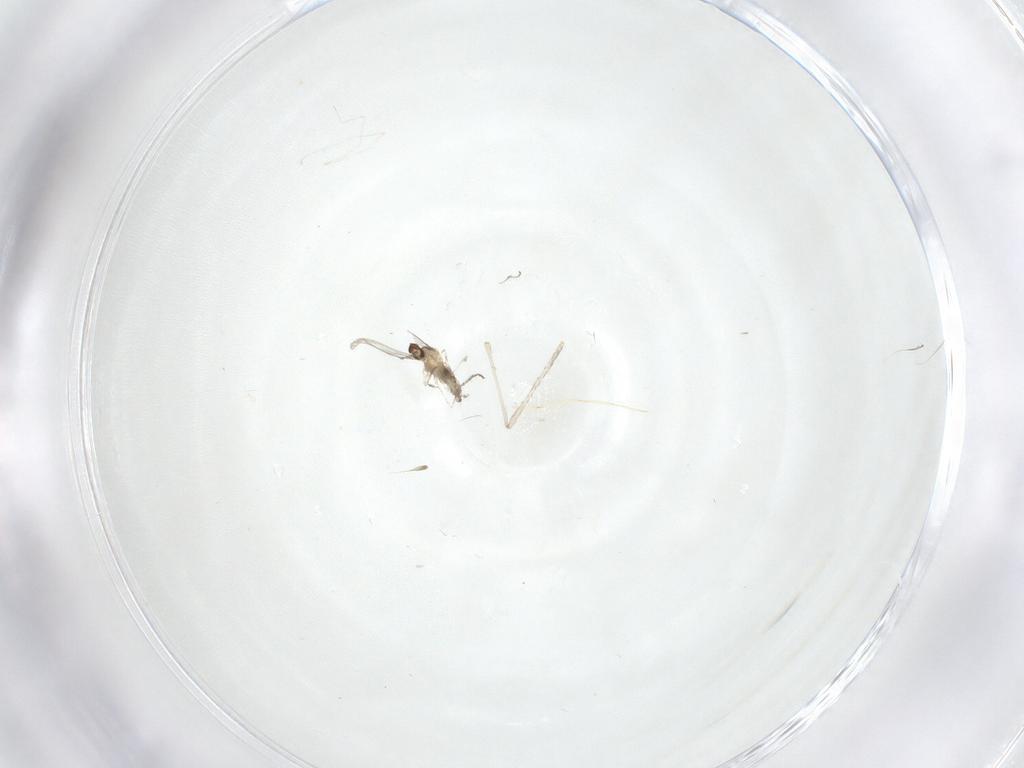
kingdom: Animalia
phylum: Arthropoda
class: Insecta
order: Diptera
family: Cecidomyiidae
